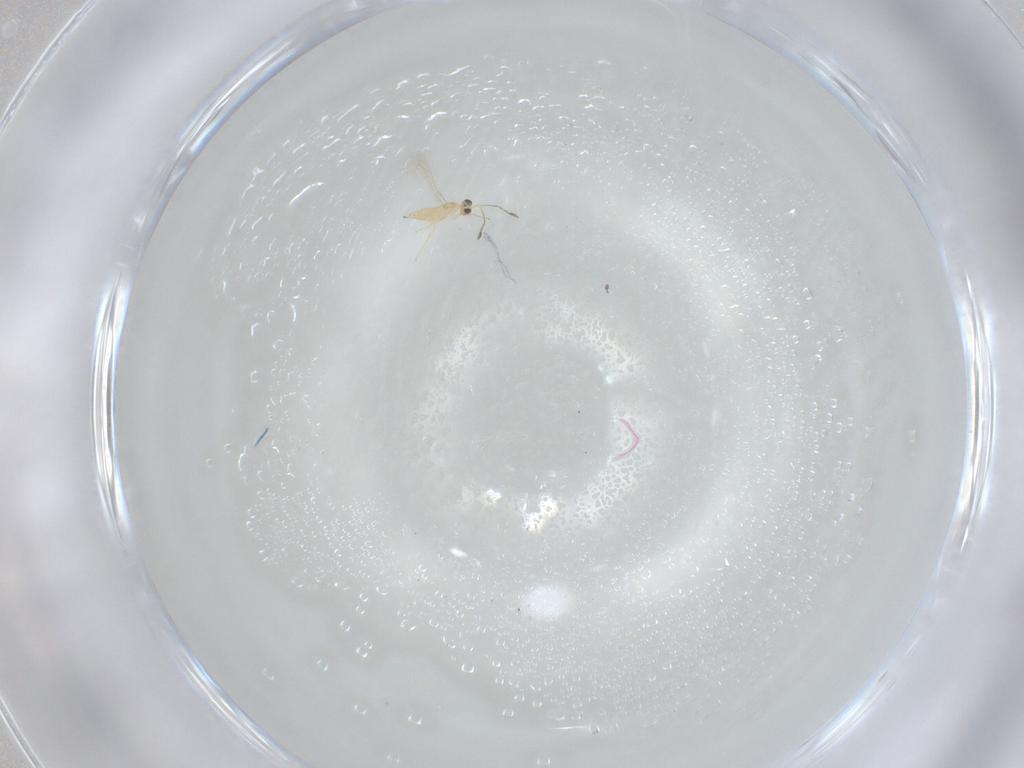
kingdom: Animalia
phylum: Arthropoda
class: Insecta
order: Hymenoptera
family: Mymaridae
